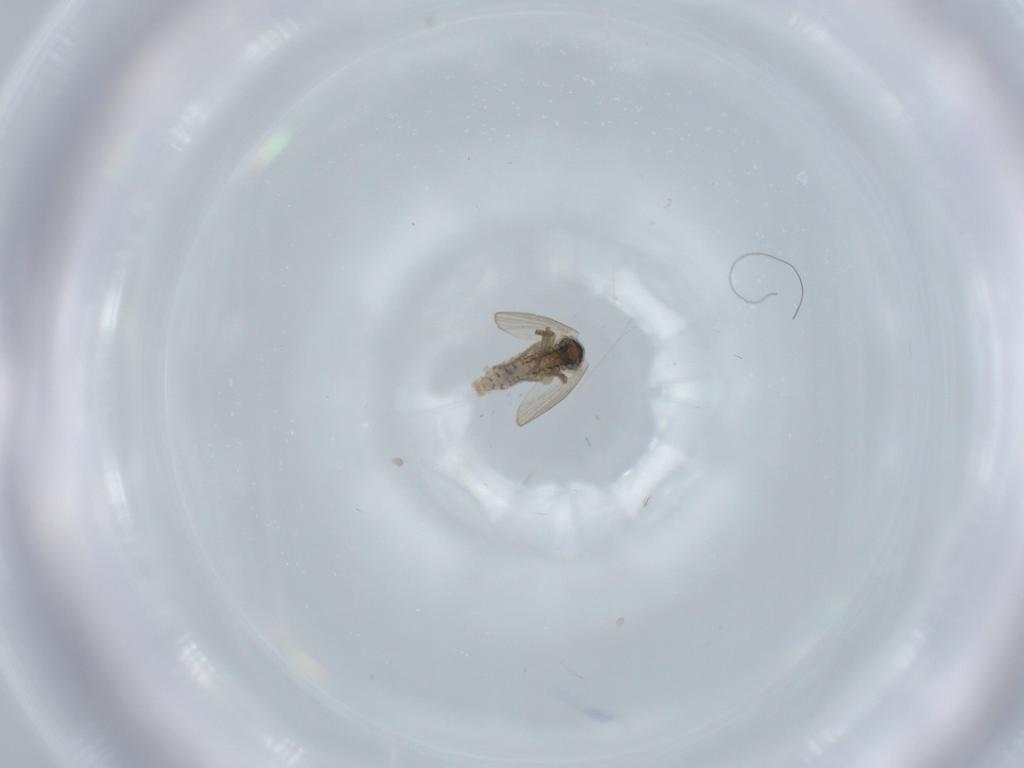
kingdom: Animalia
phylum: Arthropoda
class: Insecta
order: Diptera
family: Psychodidae
